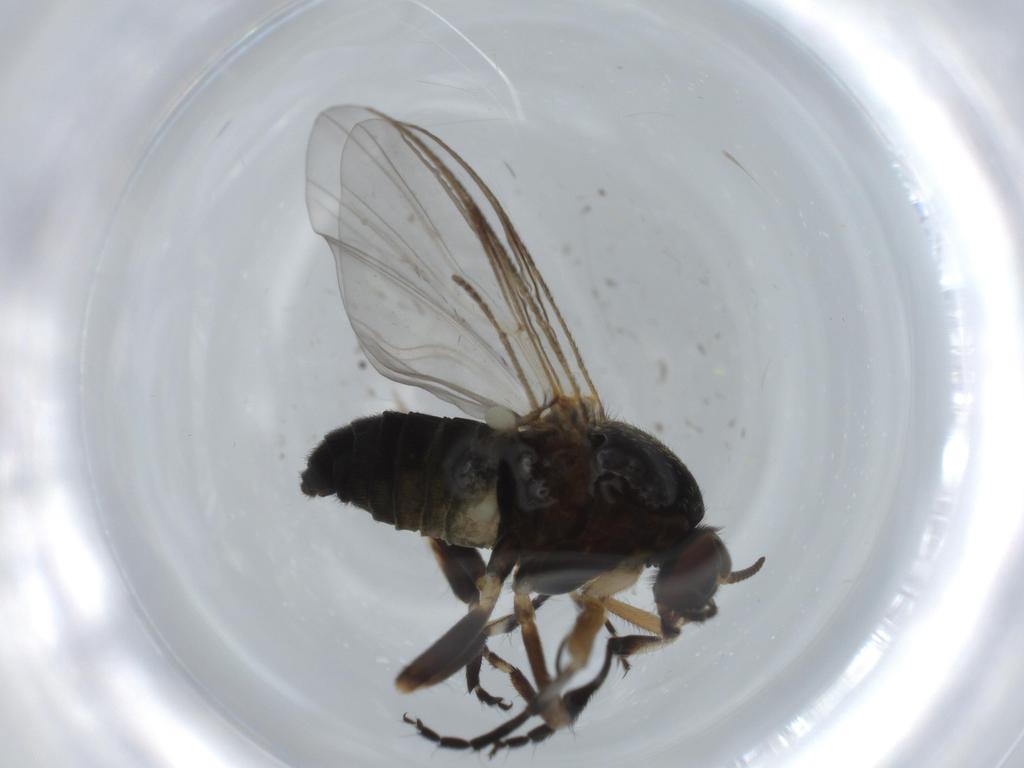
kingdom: Animalia
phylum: Arthropoda
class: Insecta
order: Diptera
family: Sphaeroceridae
